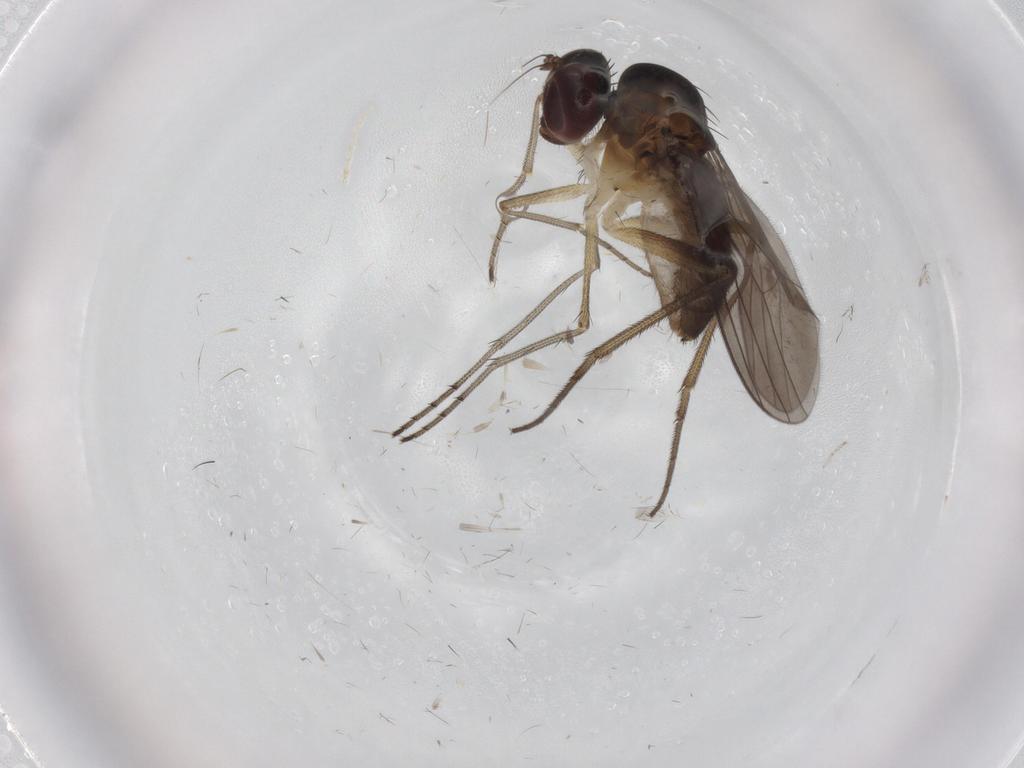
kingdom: Animalia
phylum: Arthropoda
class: Insecta
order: Diptera
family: Dolichopodidae
